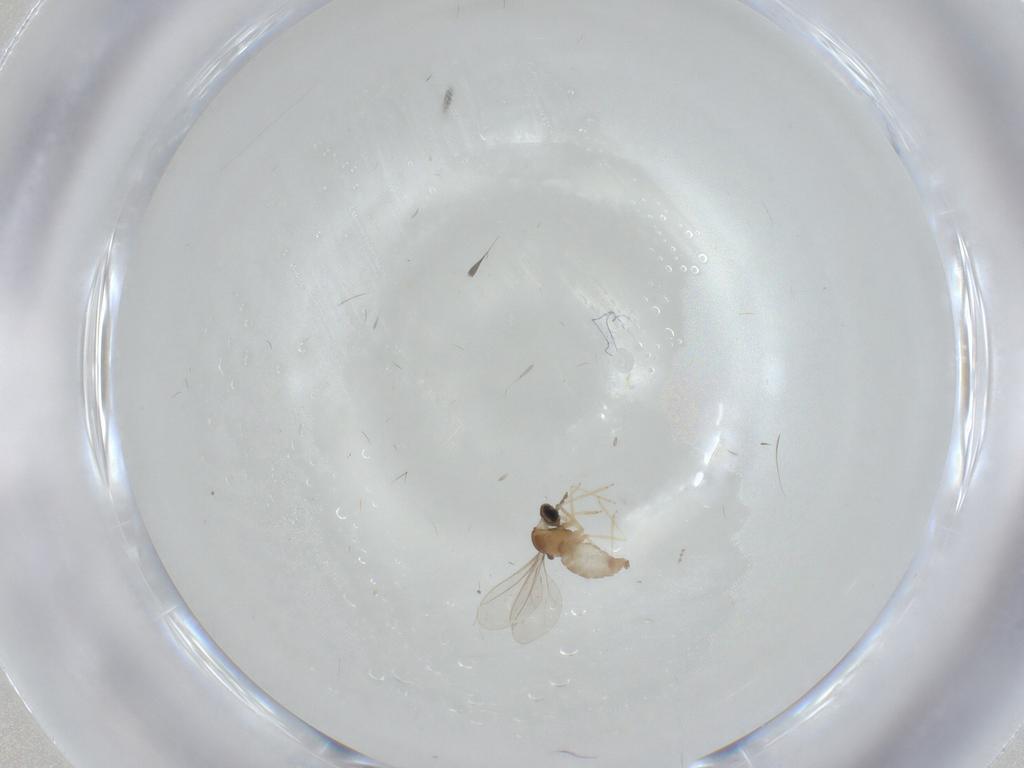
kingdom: Animalia
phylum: Arthropoda
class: Insecta
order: Diptera
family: Cecidomyiidae
